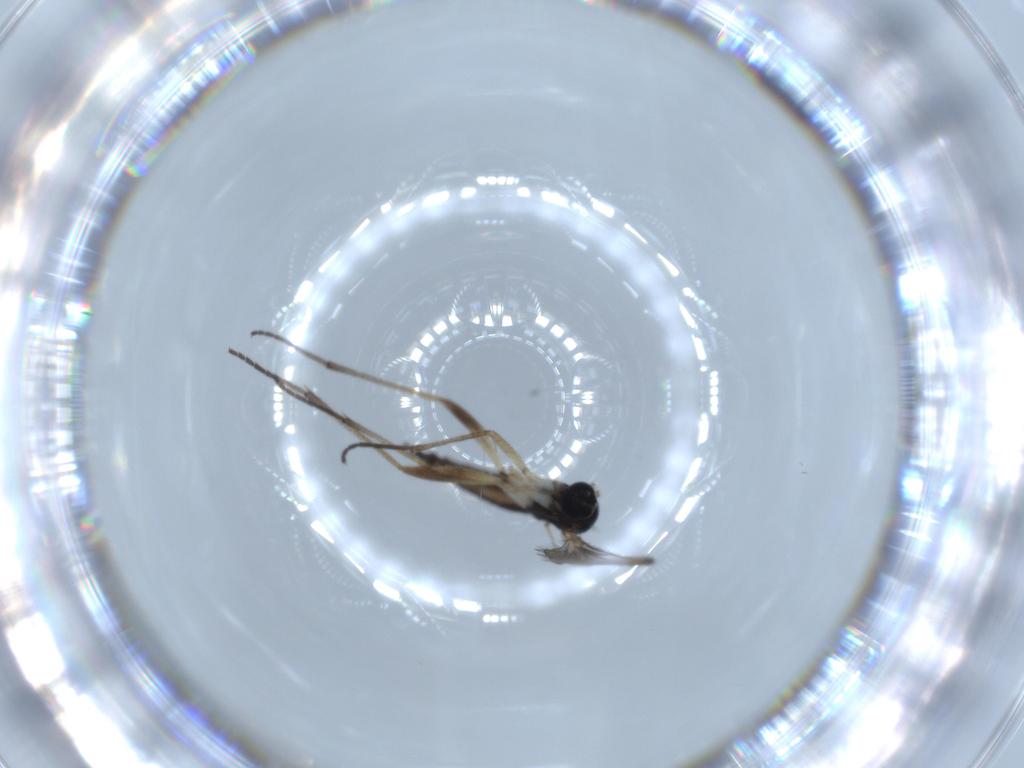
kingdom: Animalia
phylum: Arthropoda
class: Insecta
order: Diptera
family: Sciaridae
